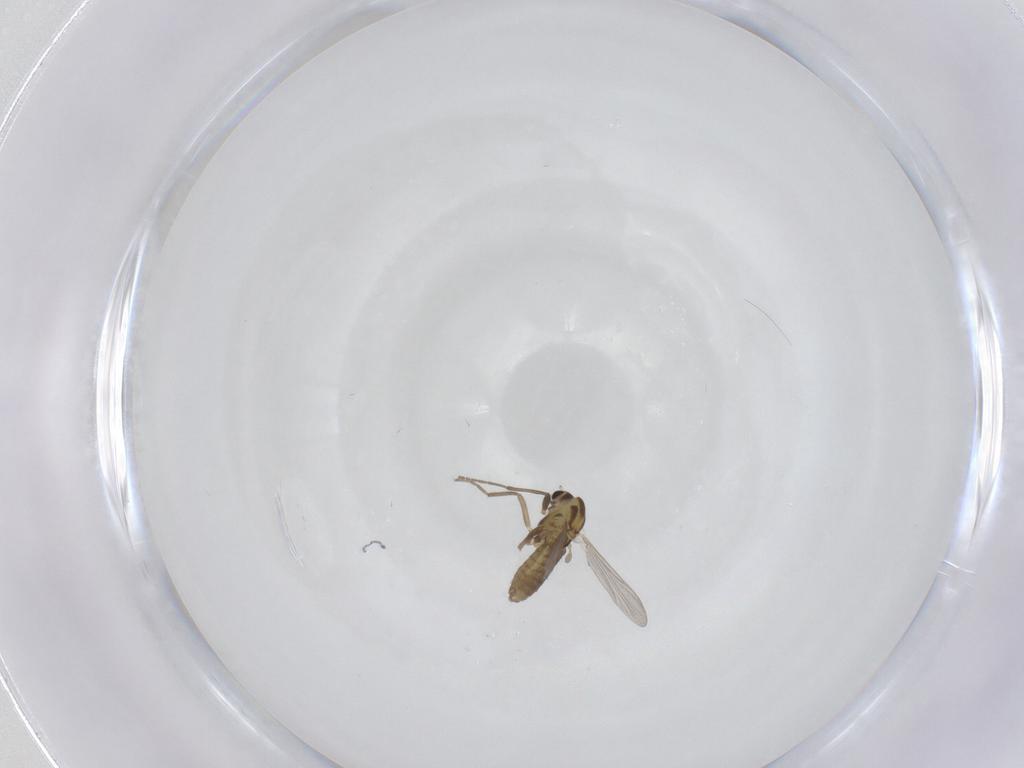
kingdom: Animalia
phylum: Arthropoda
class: Insecta
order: Diptera
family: Chironomidae
